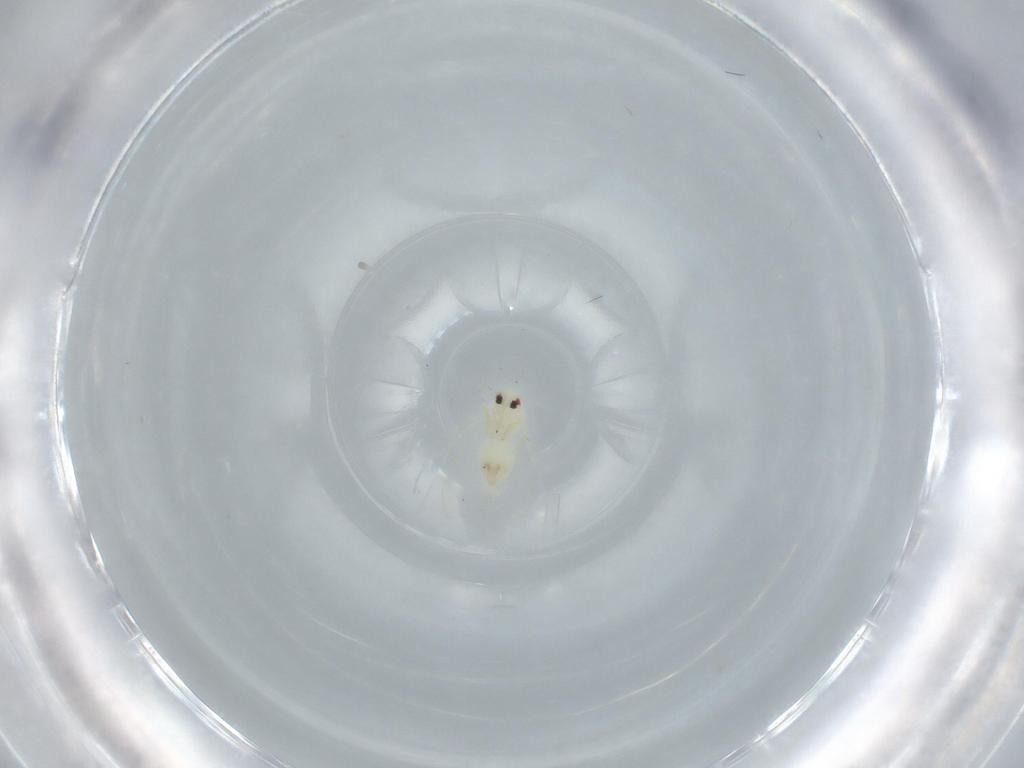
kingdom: Animalia
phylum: Arthropoda
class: Insecta
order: Hemiptera
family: Aleyrodidae
